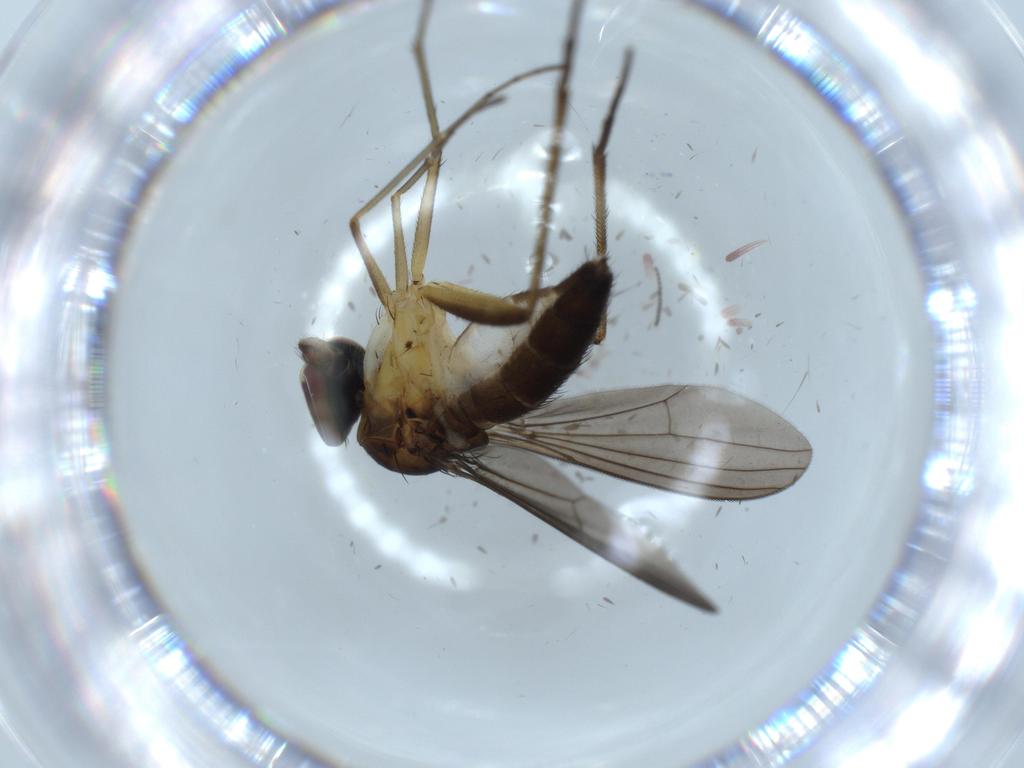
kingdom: Animalia
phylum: Arthropoda
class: Insecta
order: Diptera
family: Dolichopodidae
